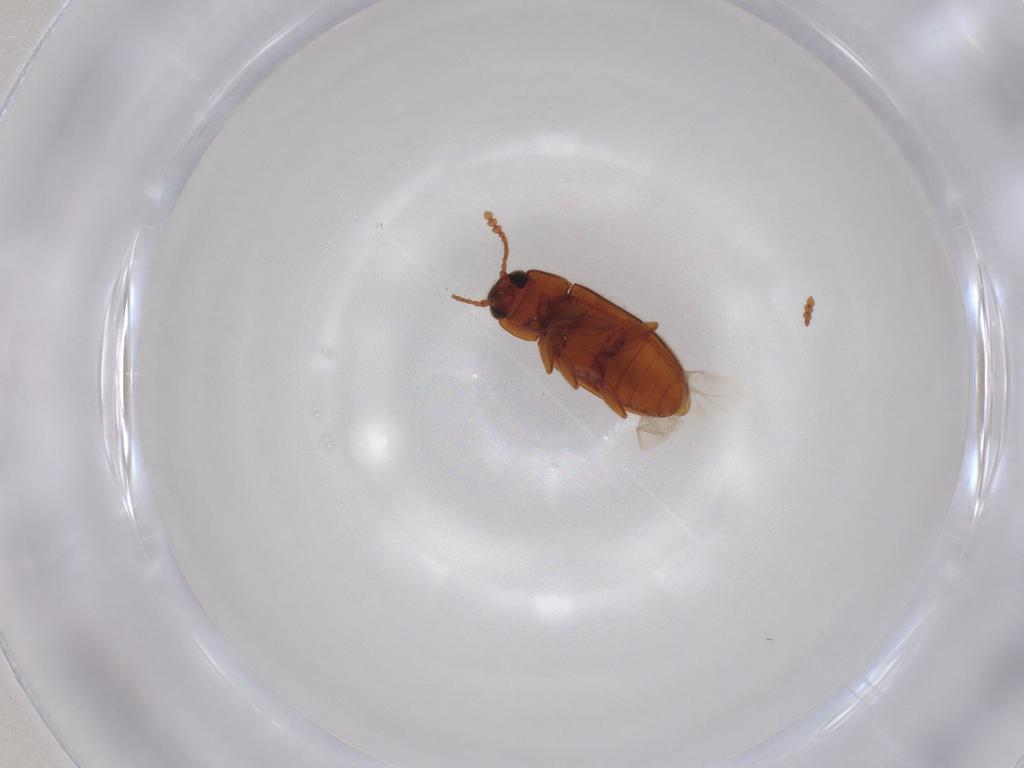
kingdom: Animalia
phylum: Arthropoda
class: Insecta
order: Coleoptera
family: Erotylidae
